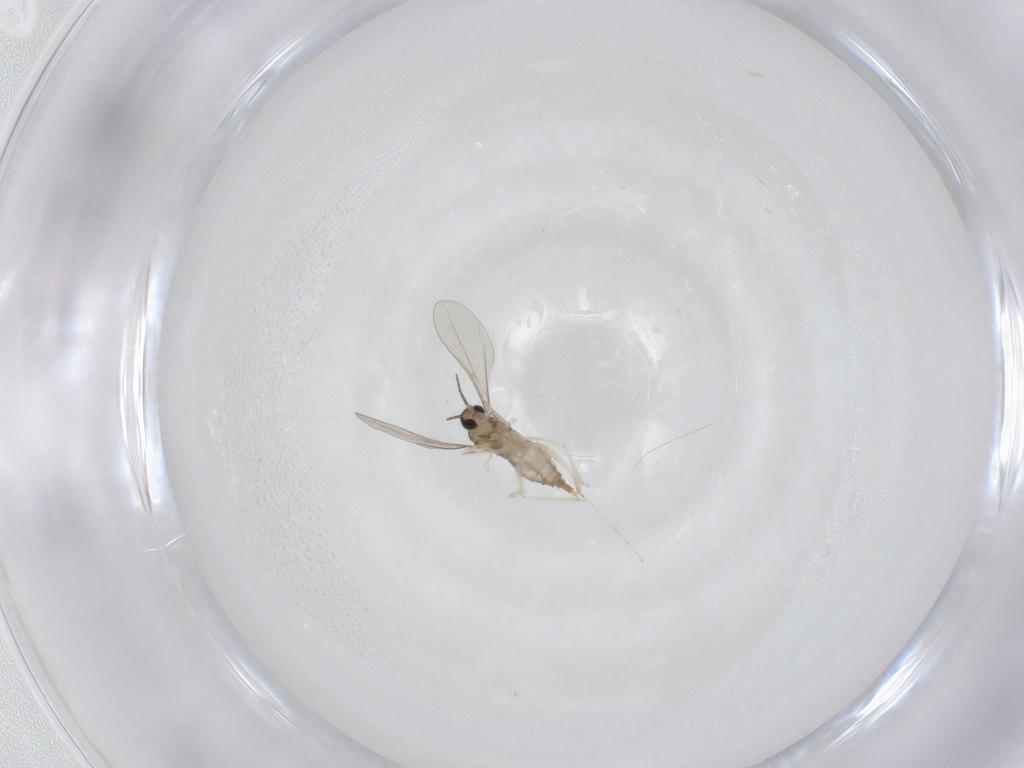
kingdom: Animalia
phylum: Arthropoda
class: Insecta
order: Diptera
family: Cecidomyiidae
